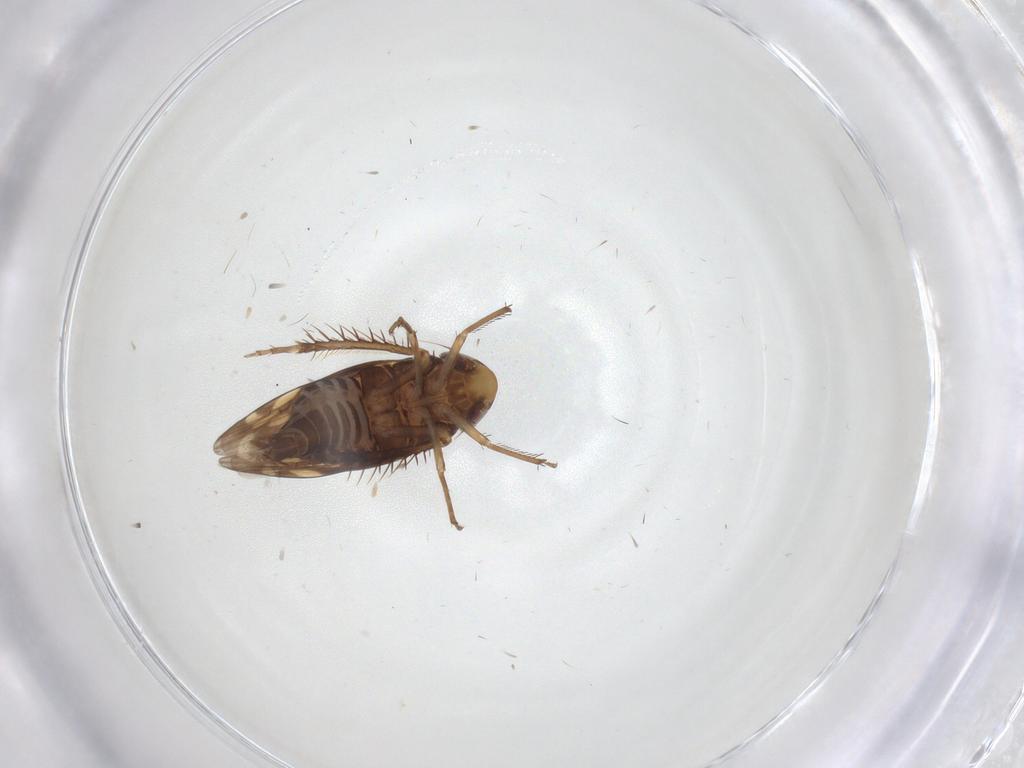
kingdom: Animalia
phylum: Arthropoda
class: Insecta
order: Hemiptera
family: Cicadellidae
